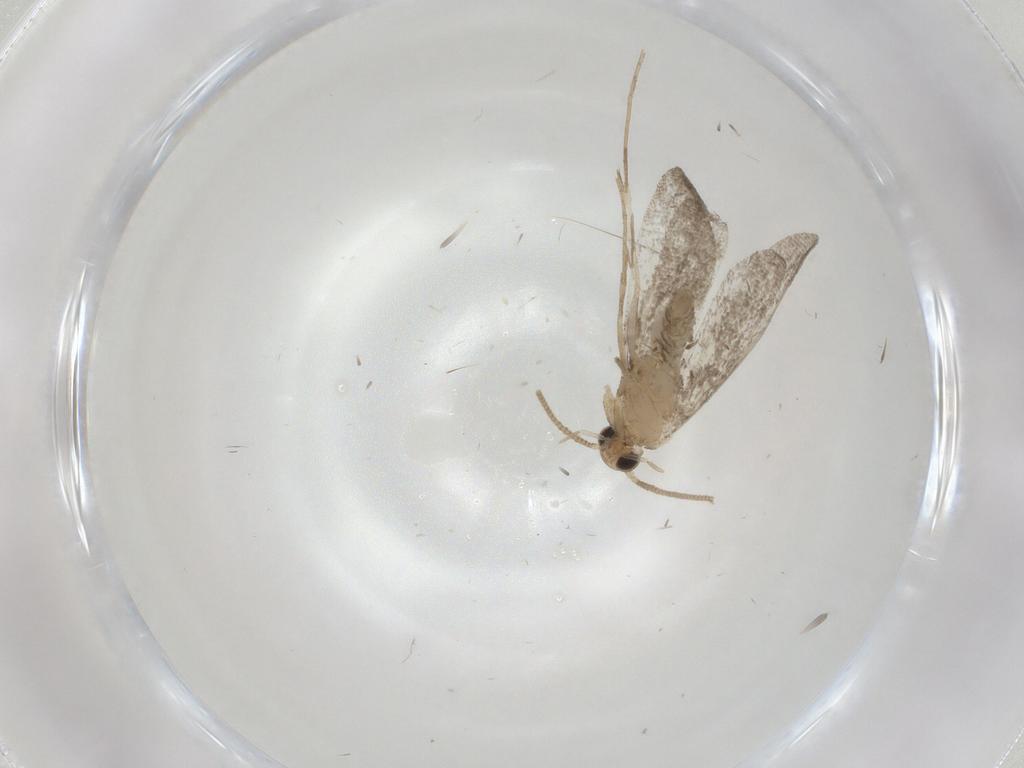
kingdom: Animalia
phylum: Arthropoda
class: Insecta
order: Lepidoptera
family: Nymphalidae
